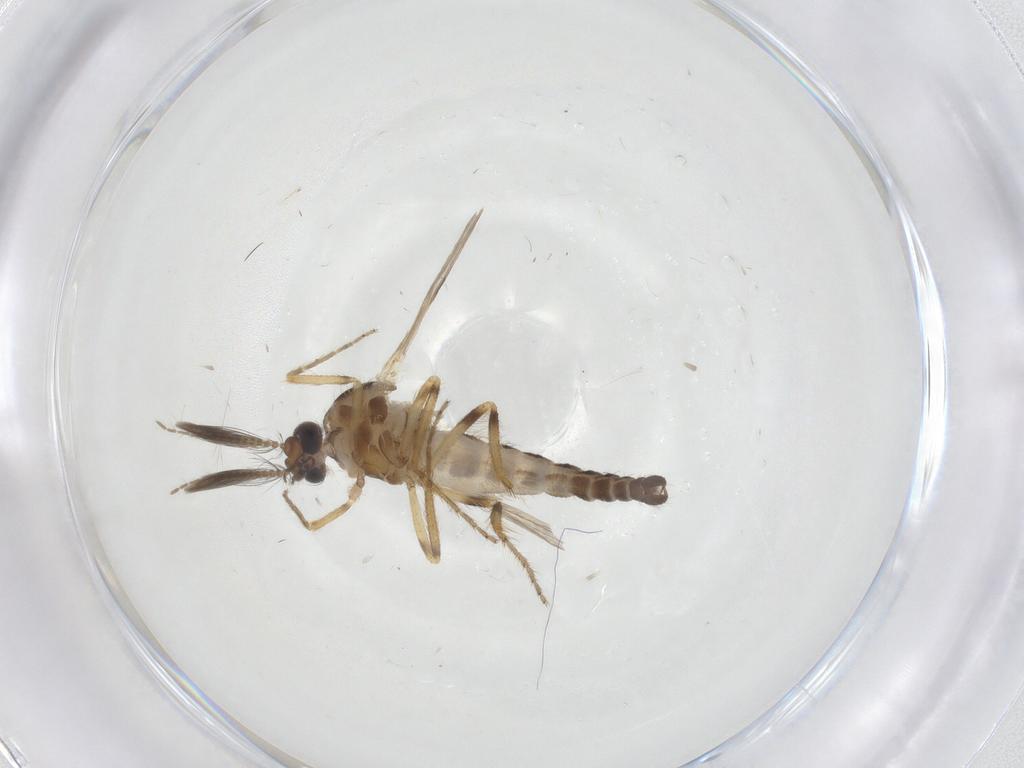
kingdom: Animalia
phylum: Arthropoda
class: Insecta
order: Diptera
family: Ceratopogonidae
